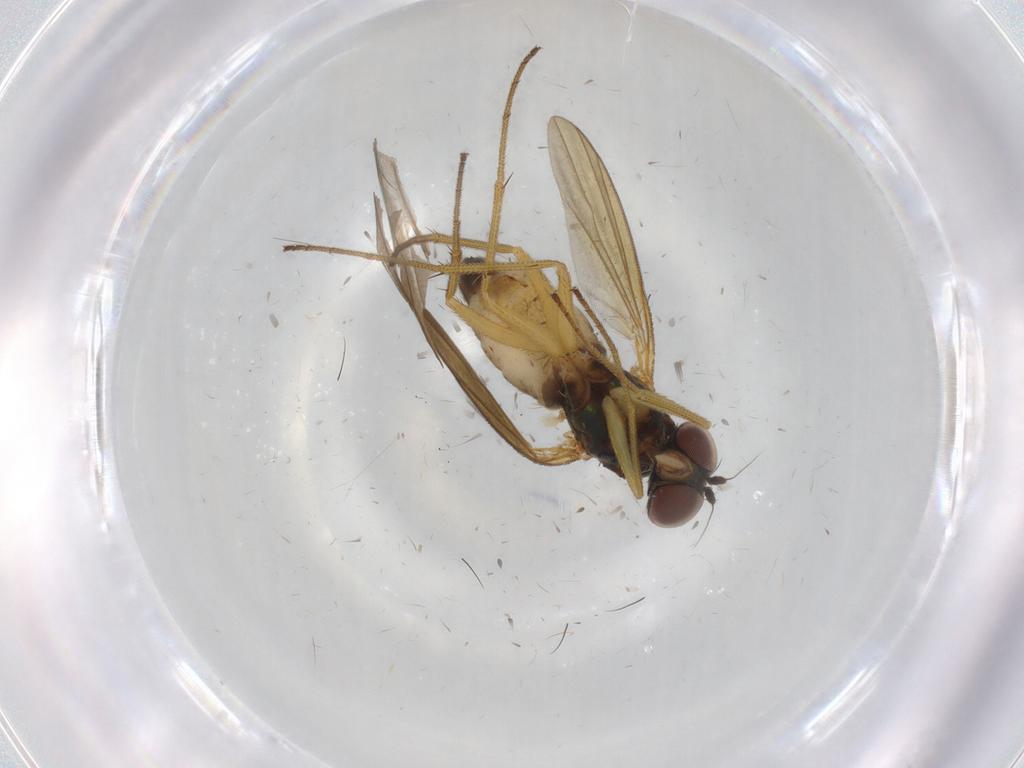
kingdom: Animalia
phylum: Arthropoda
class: Insecta
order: Diptera
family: Dolichopodidae
